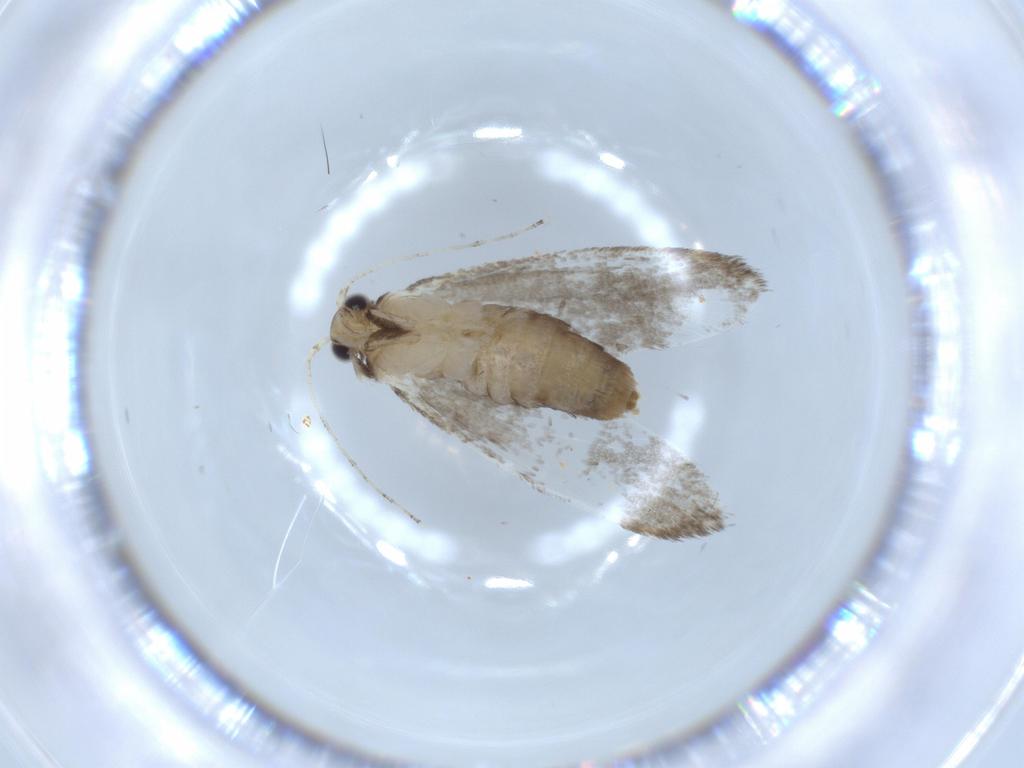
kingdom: Animalia
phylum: Arthropoda
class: Insecta
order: Lepidoptera
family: Tineidae
